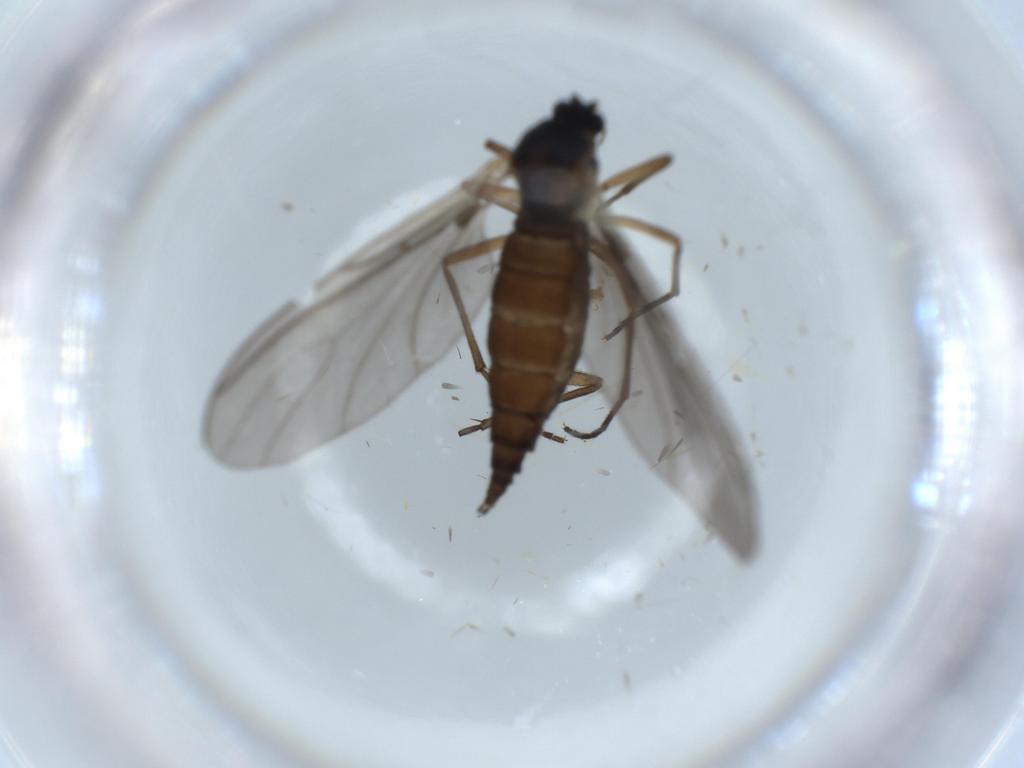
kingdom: Animalia
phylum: Arthropoda
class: Insecta
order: Diptera
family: Sciaridae
